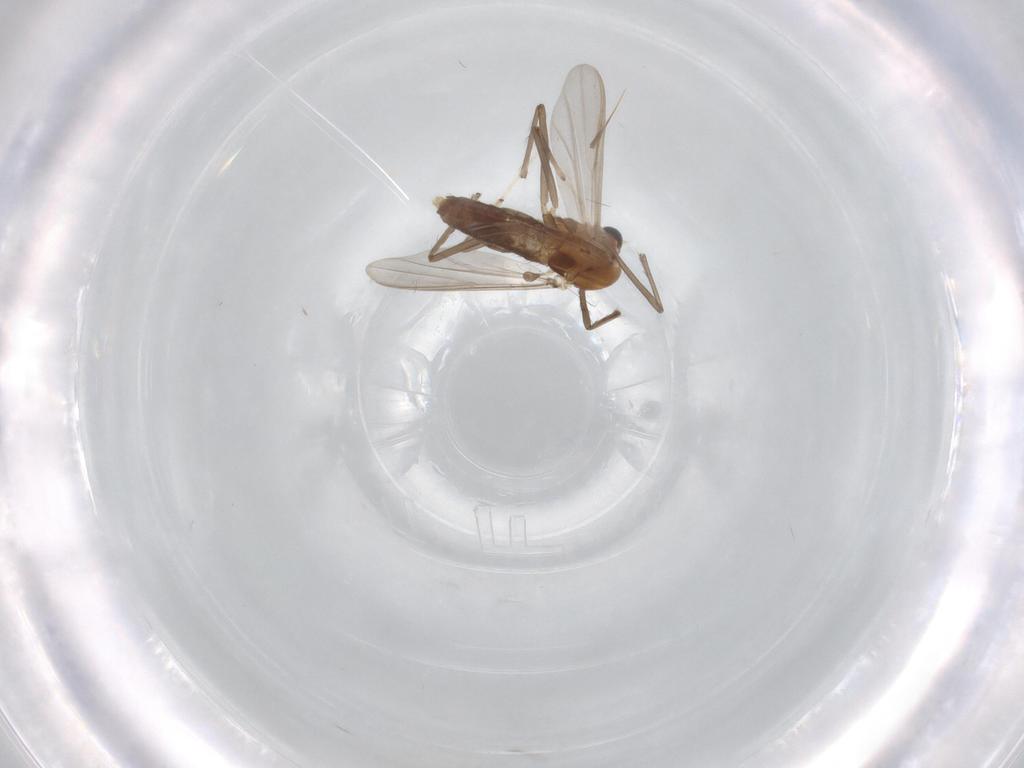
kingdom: Animalia
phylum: Arthropoda
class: Insecta
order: Diptera
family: Chironomidae
